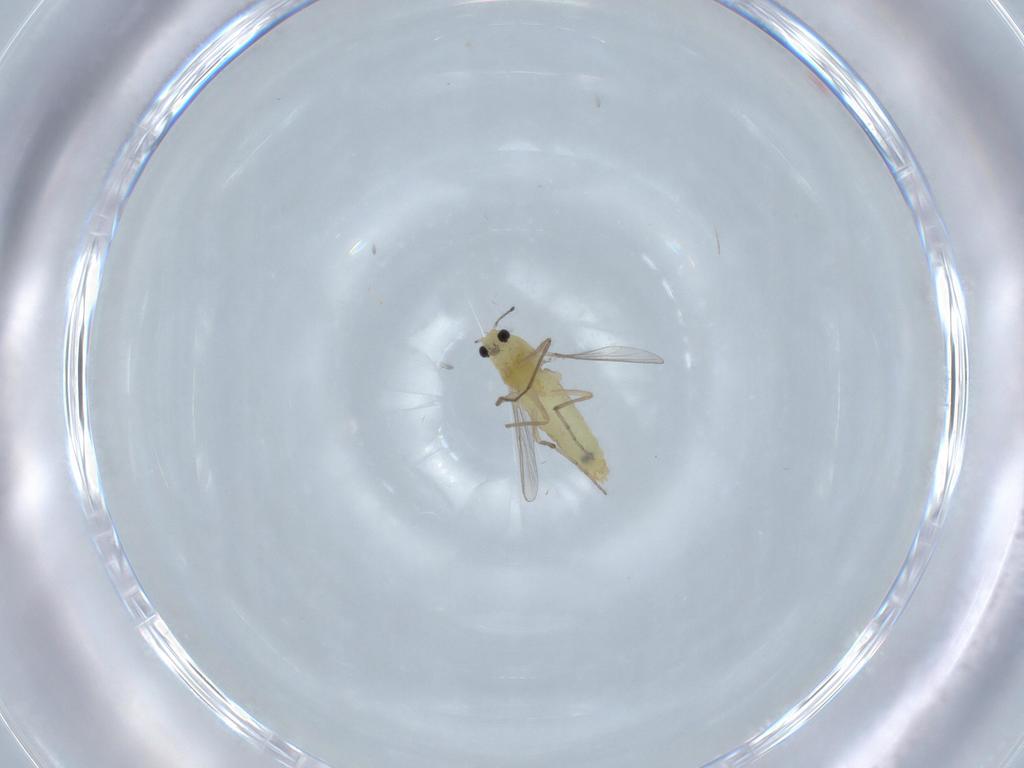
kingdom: Animalia
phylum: Arthropoda
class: Insecta
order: Diptera
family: Chironomidae
